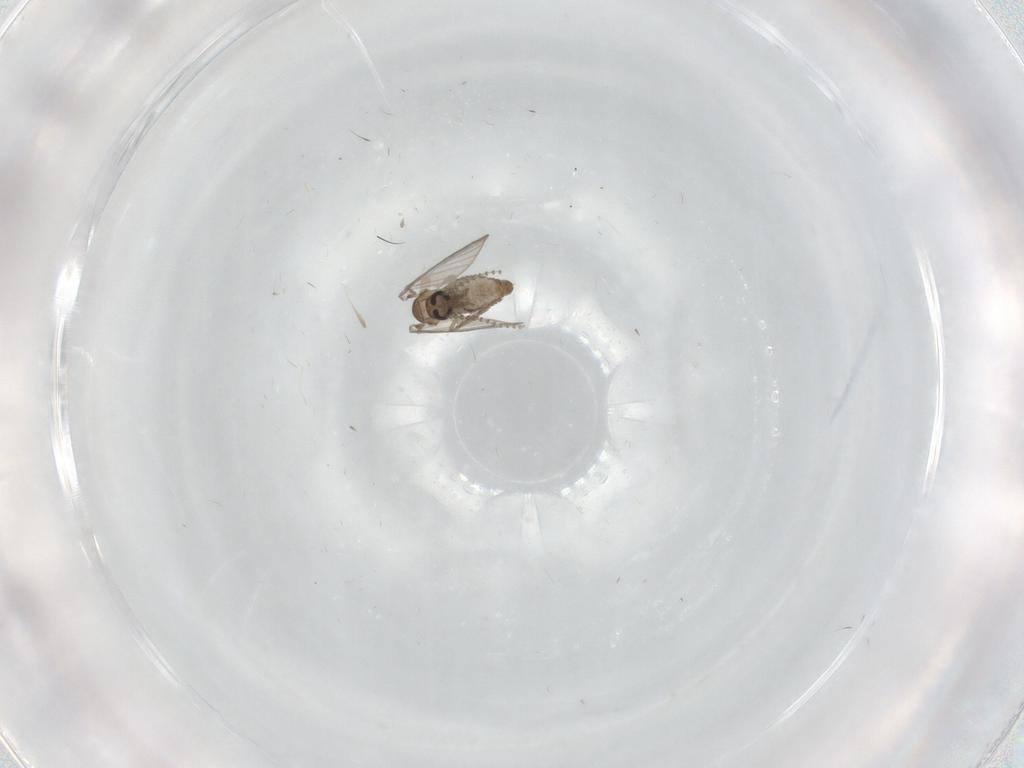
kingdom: Animalia
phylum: Arthropoda
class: Insecta
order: Diptera
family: Psychodidae
